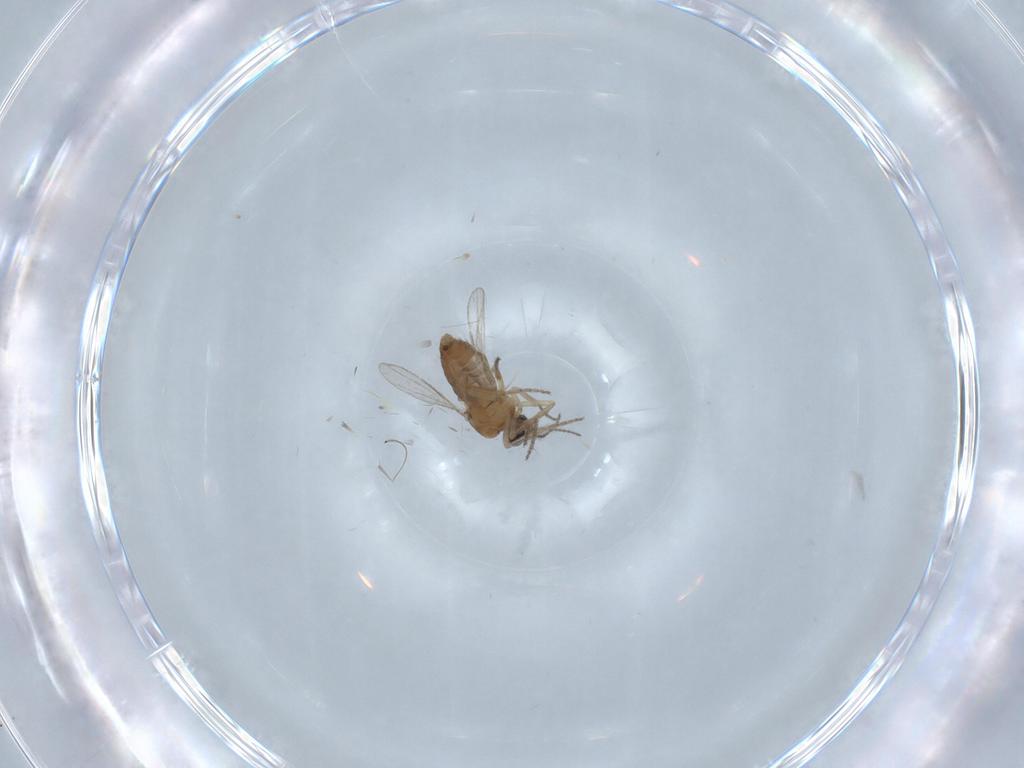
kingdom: Animalia
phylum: Arthropoda
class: Insecta
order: Diptera
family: Ceratopogonidae
